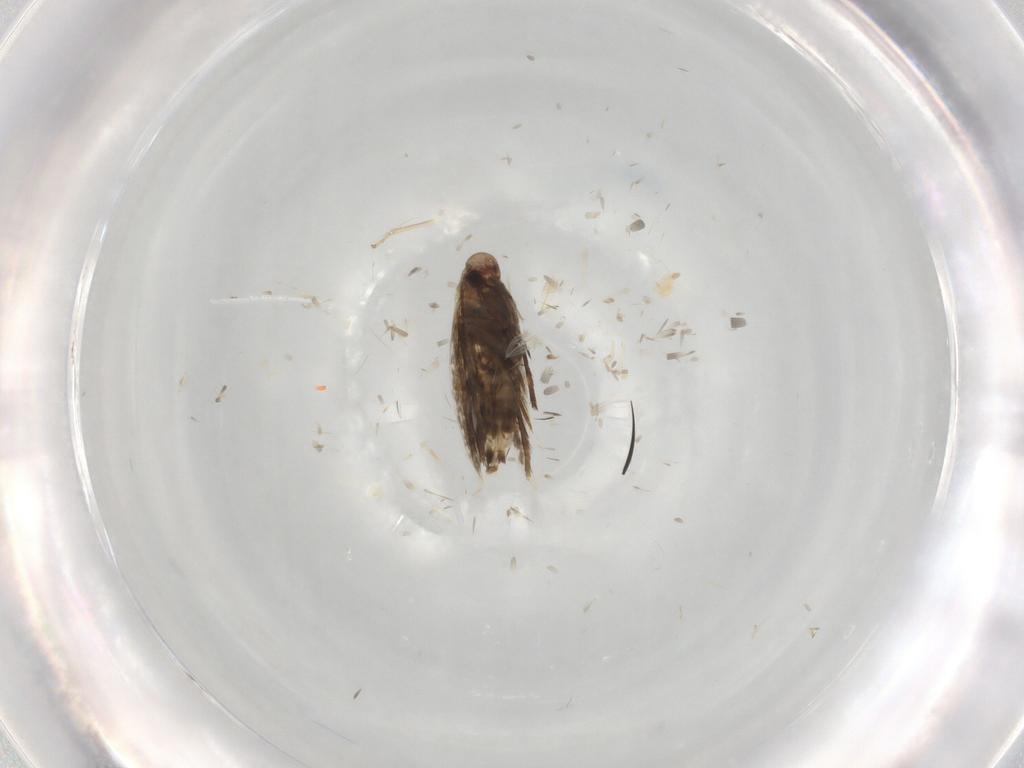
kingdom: Animalia
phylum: Arthropoda
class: Insecta
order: Lepidoptera
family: Gracillariidae
